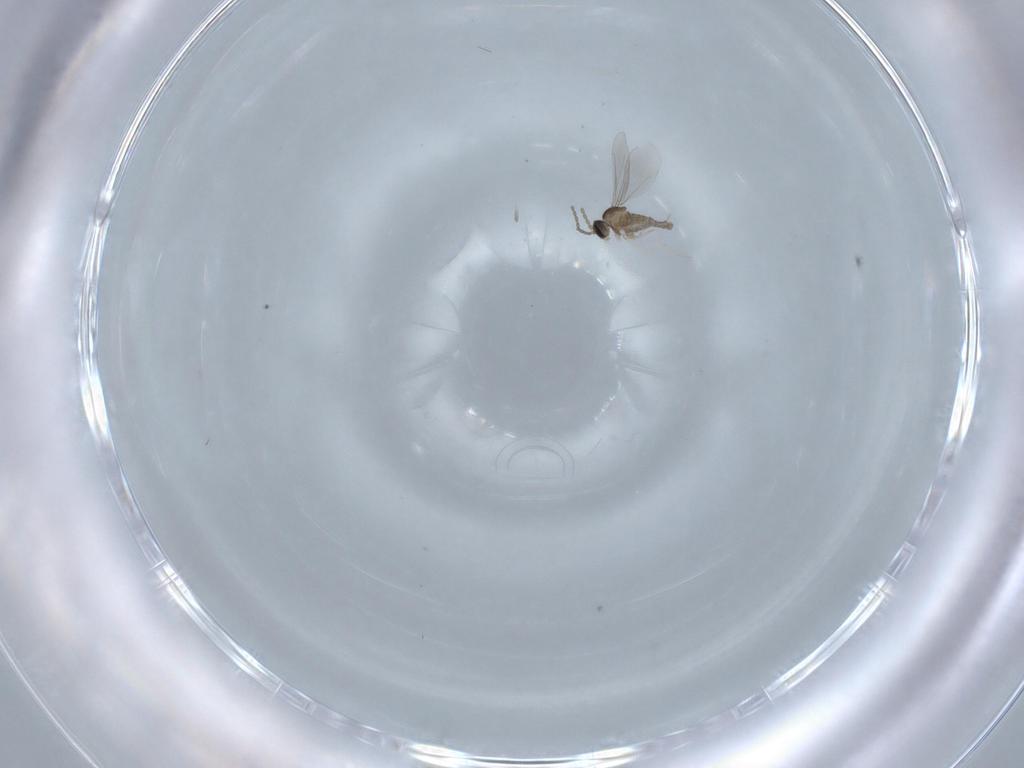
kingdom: Animalia
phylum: Arthropoda
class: Insecta
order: Diptera
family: Cecidomyiidae
